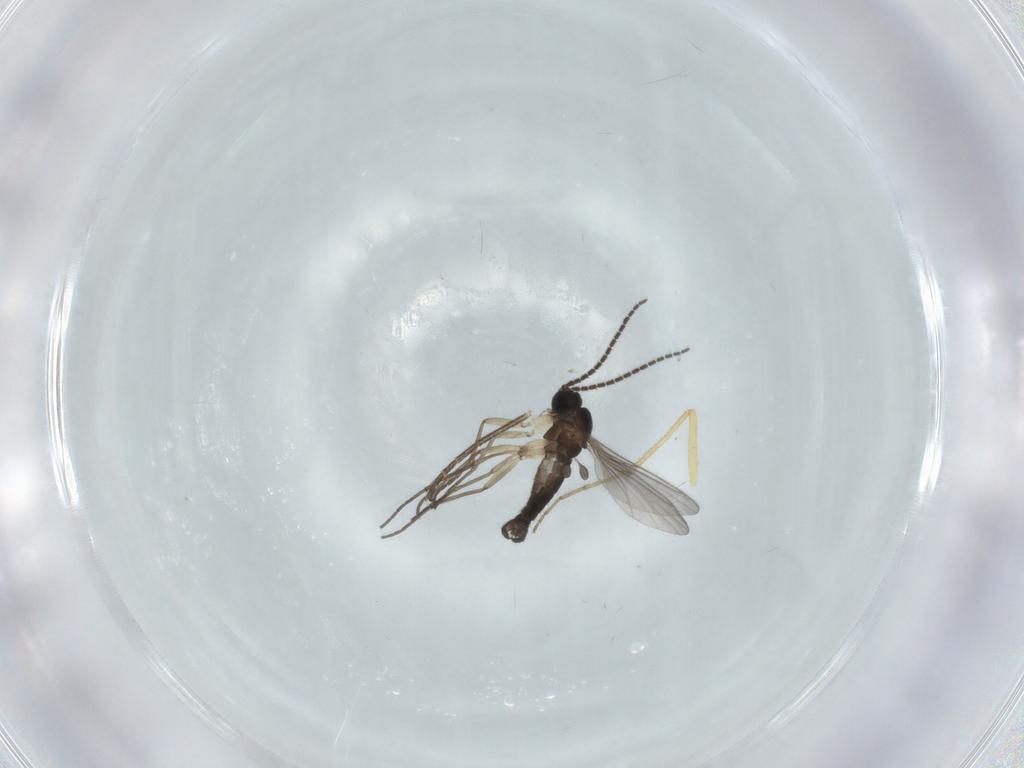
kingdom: Animalia
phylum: Arthropoda
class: Insecta
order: Diptera
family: Sciaridae
